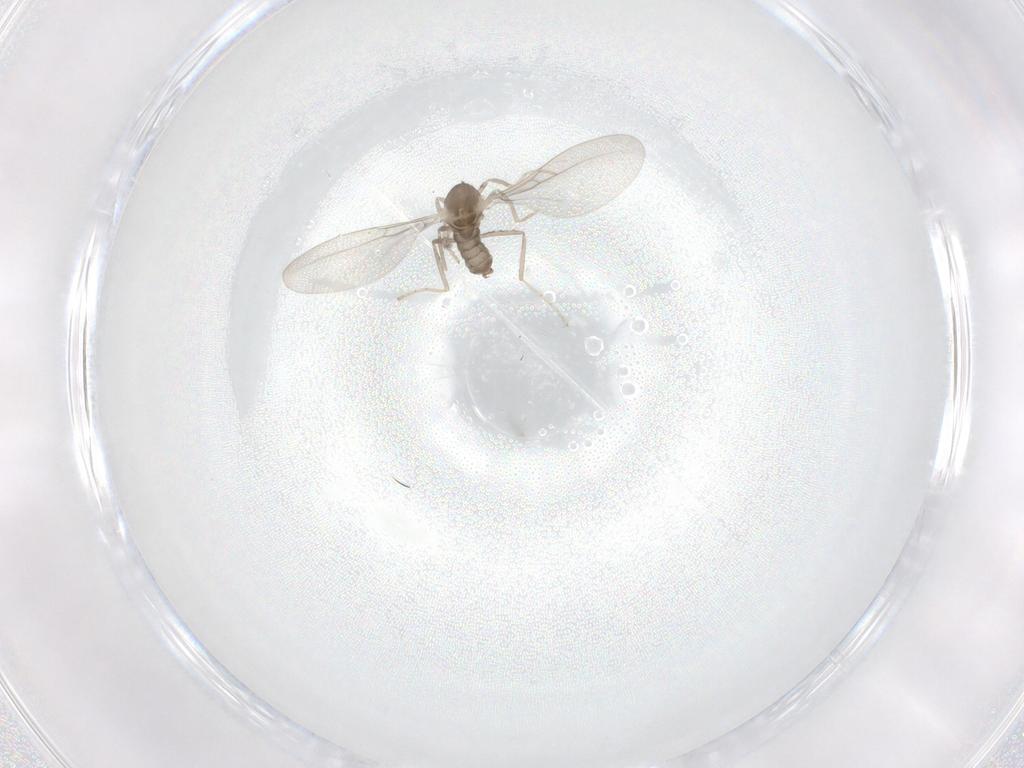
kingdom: Animalia
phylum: Arthropoda
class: Insecta
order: Diptera
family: Cecidomyiidae
